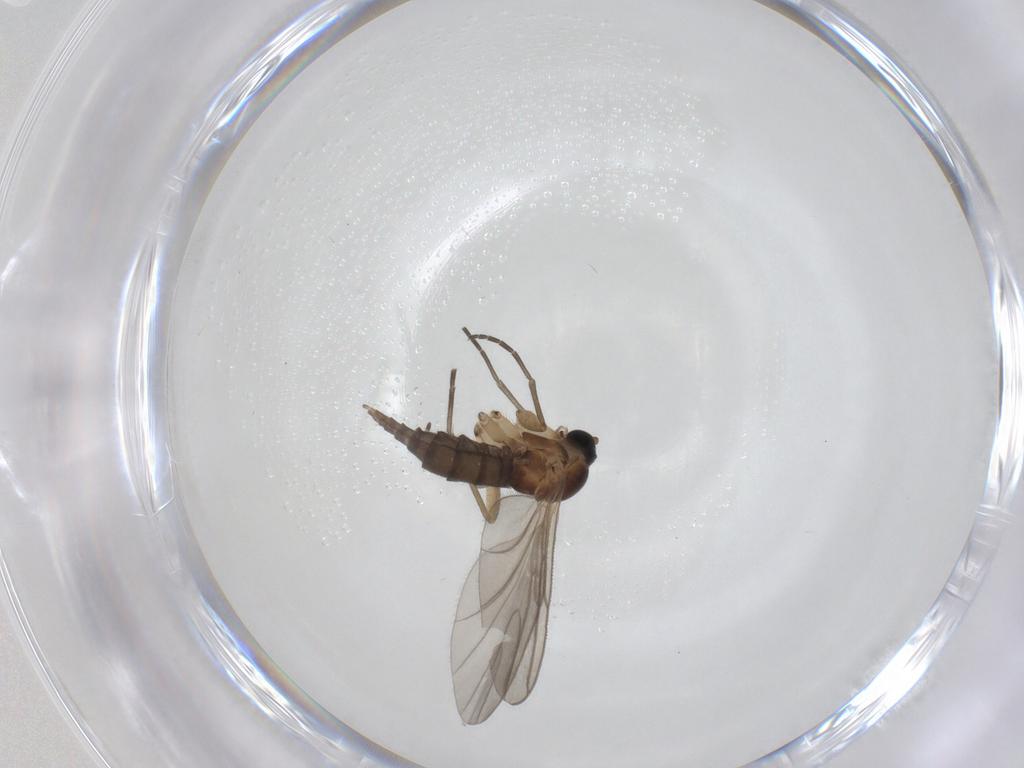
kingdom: Animalia
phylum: Arthropoda
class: Insecta
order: Diptera
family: Sciaridae
